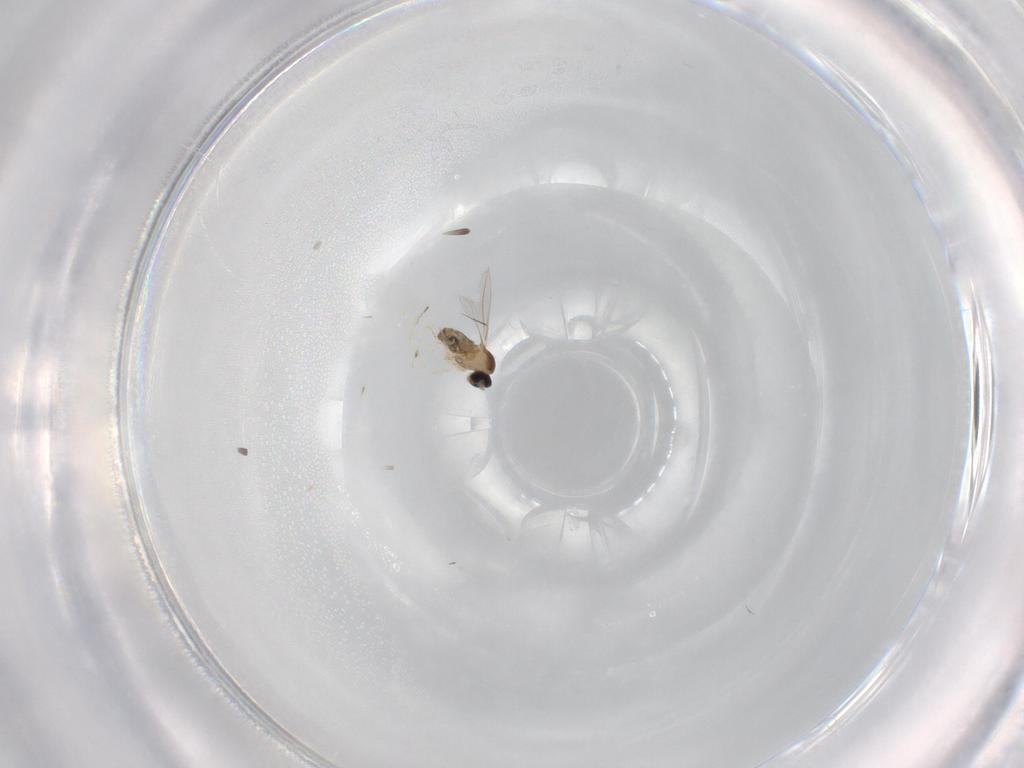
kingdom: Animalia
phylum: Arthropoda
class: Insecta
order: Diptera
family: Cecidomyiidae
